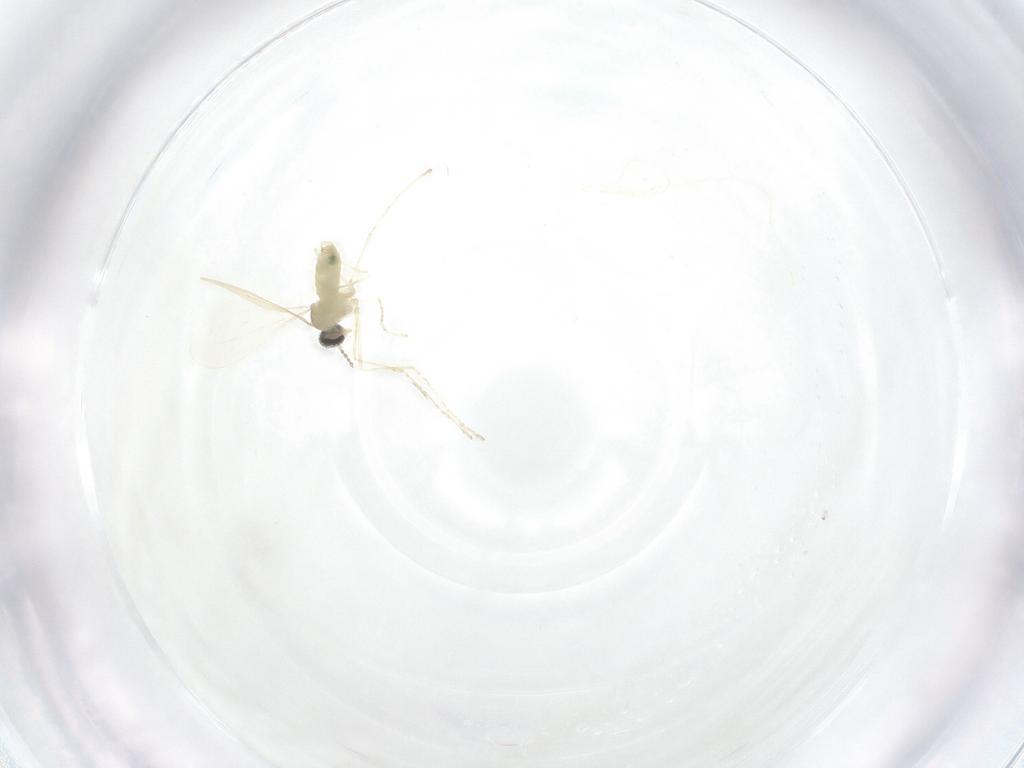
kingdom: Animalia
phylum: Arthropoda
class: Insecta
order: Diptera
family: Cecidomyiidae
